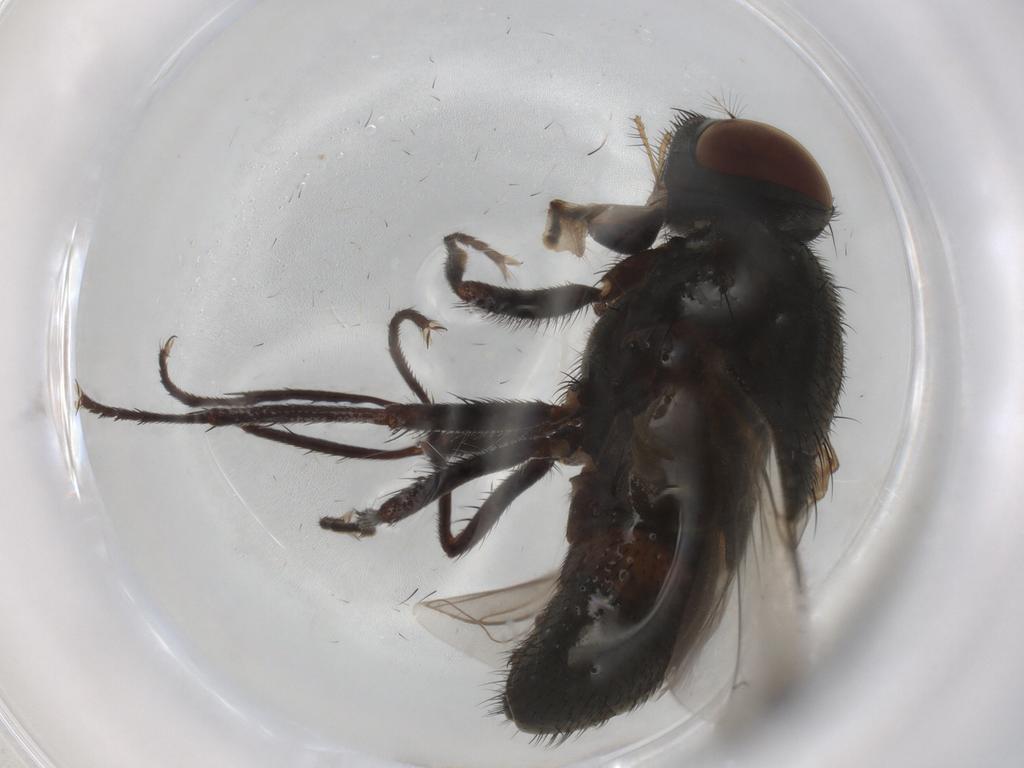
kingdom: Animalia
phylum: Arthropoda
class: Insecta
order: Diptera
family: Muscidae
